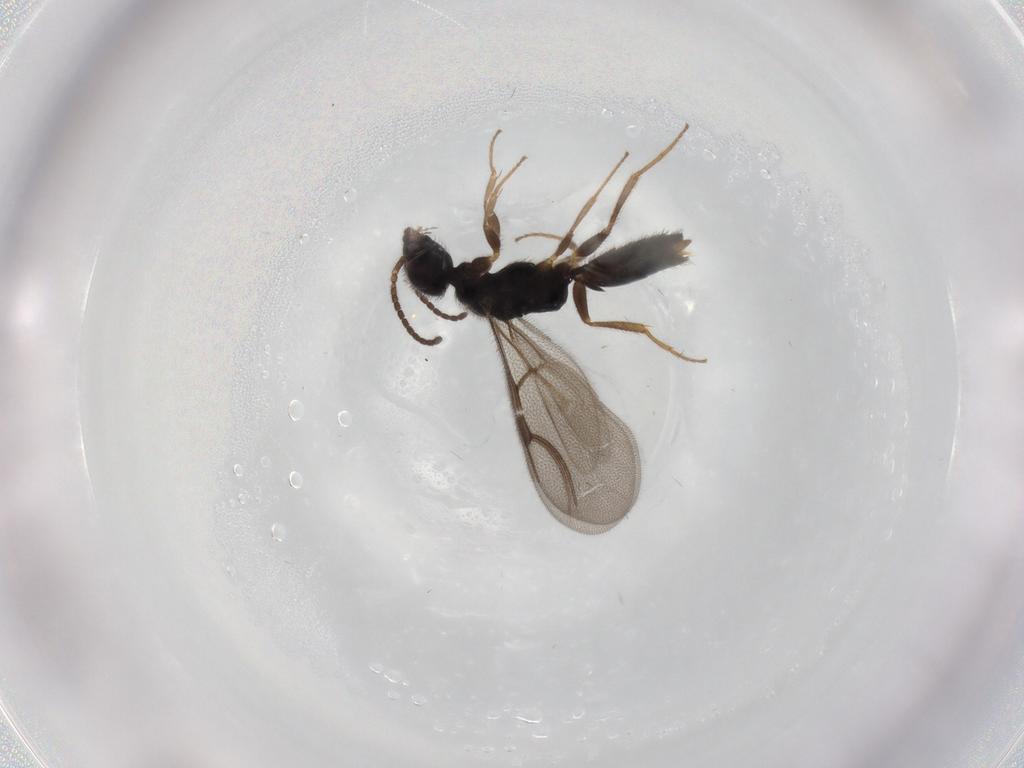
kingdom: Animalia
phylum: Arthropoda
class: Insecta
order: Hymenoptera
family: Bethylidae
